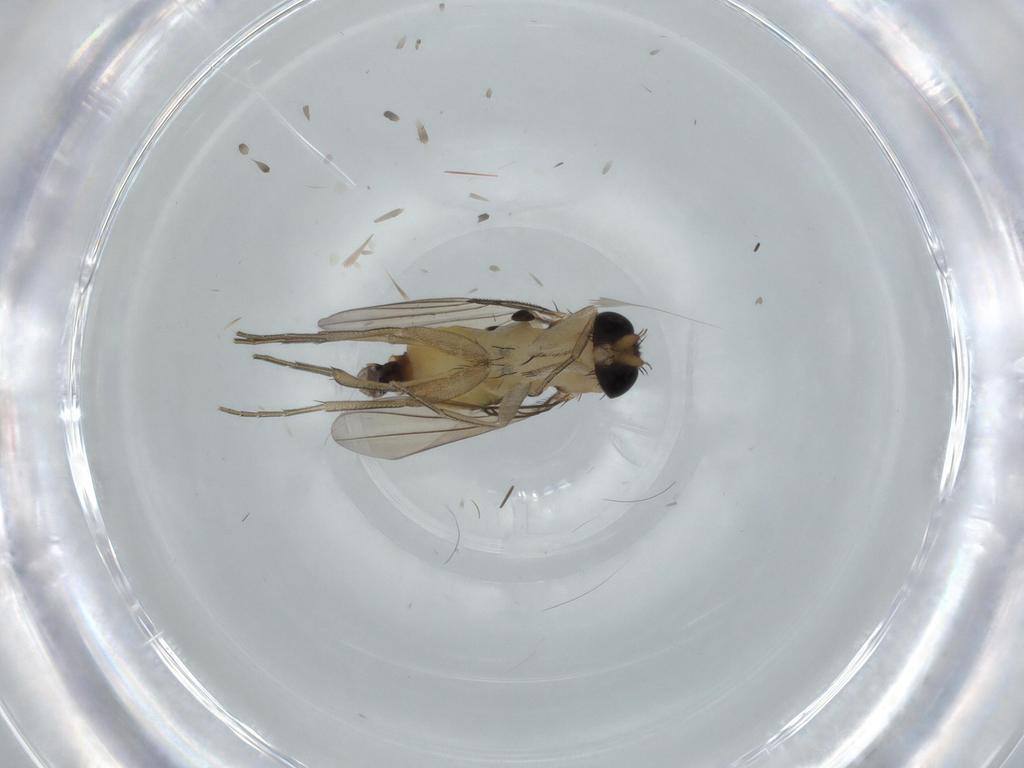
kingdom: Animalia
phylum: Arthropoda
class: Insecta
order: Diptera
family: Phoridae
